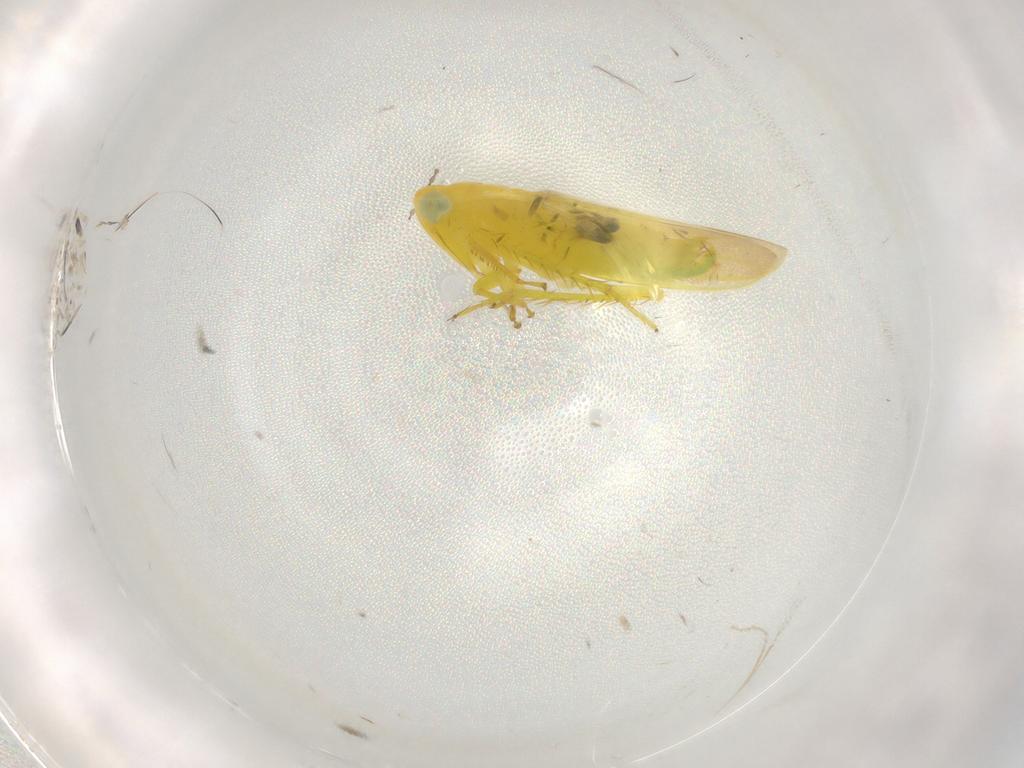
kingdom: Animalia
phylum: Arthropoda
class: Insecta
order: Hemiptera
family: Cicadellidae
